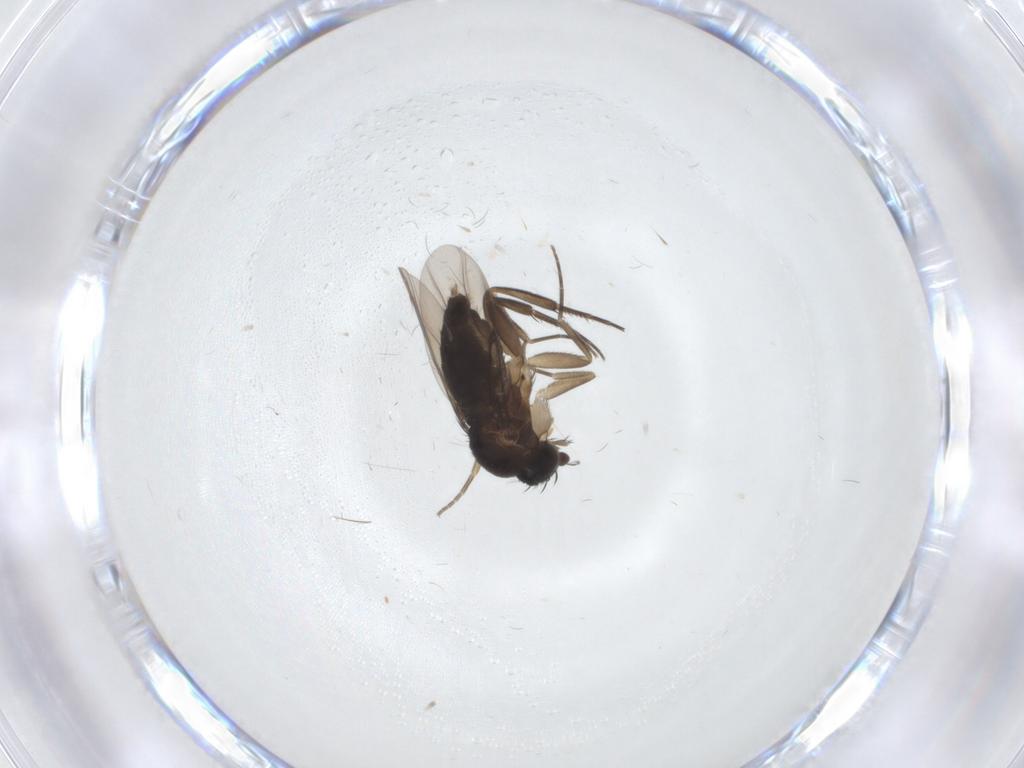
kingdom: Animalia
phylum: Arthropoda
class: Insecta
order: Diptera
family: Phoridae
